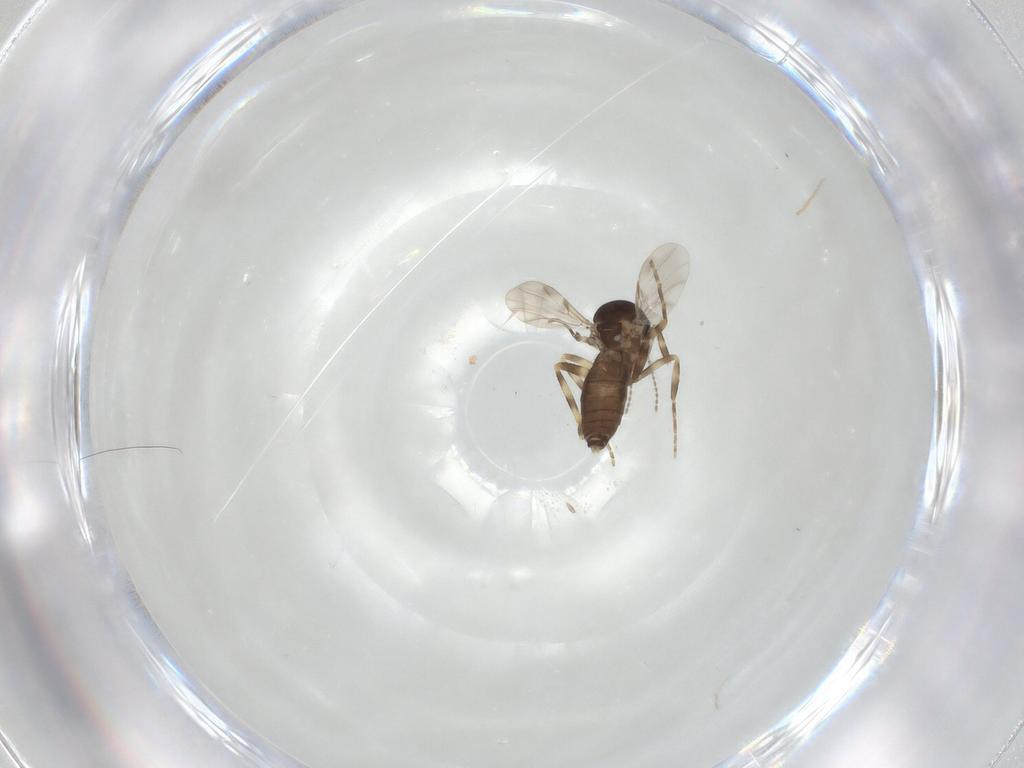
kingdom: Animalia
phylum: Arthropoda
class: Insecta
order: Diptera
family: Ceratopogonidae
